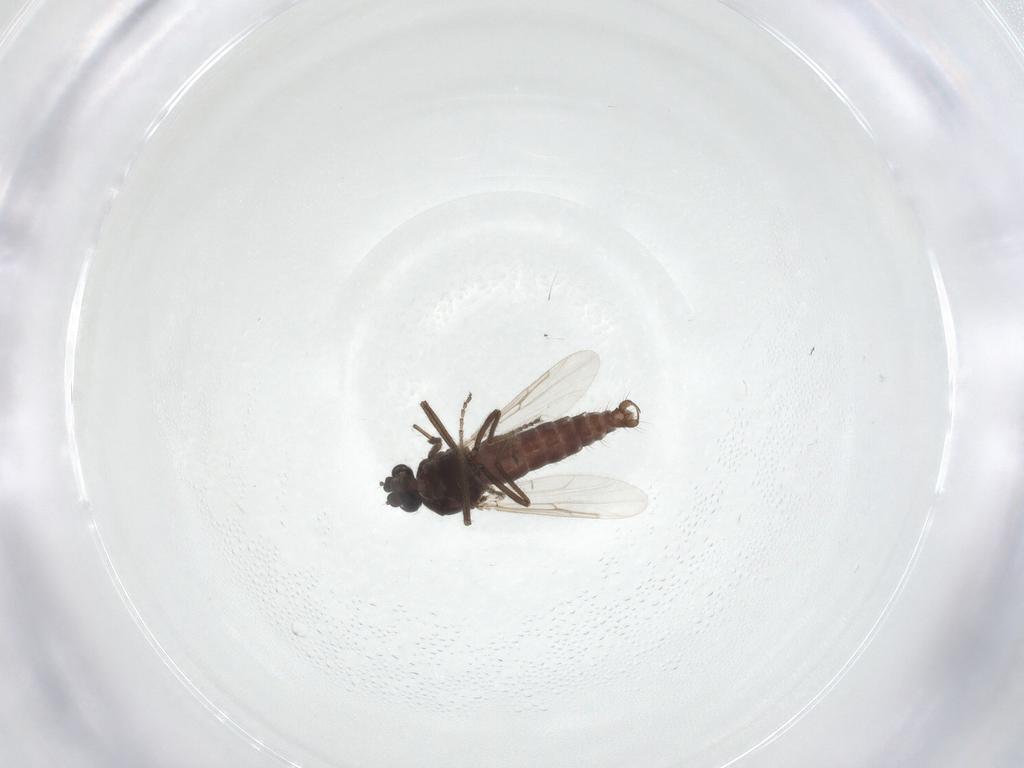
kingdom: Animalia
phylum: Arthropoda
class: Insecta
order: Diptera
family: Ceratopogonidae
